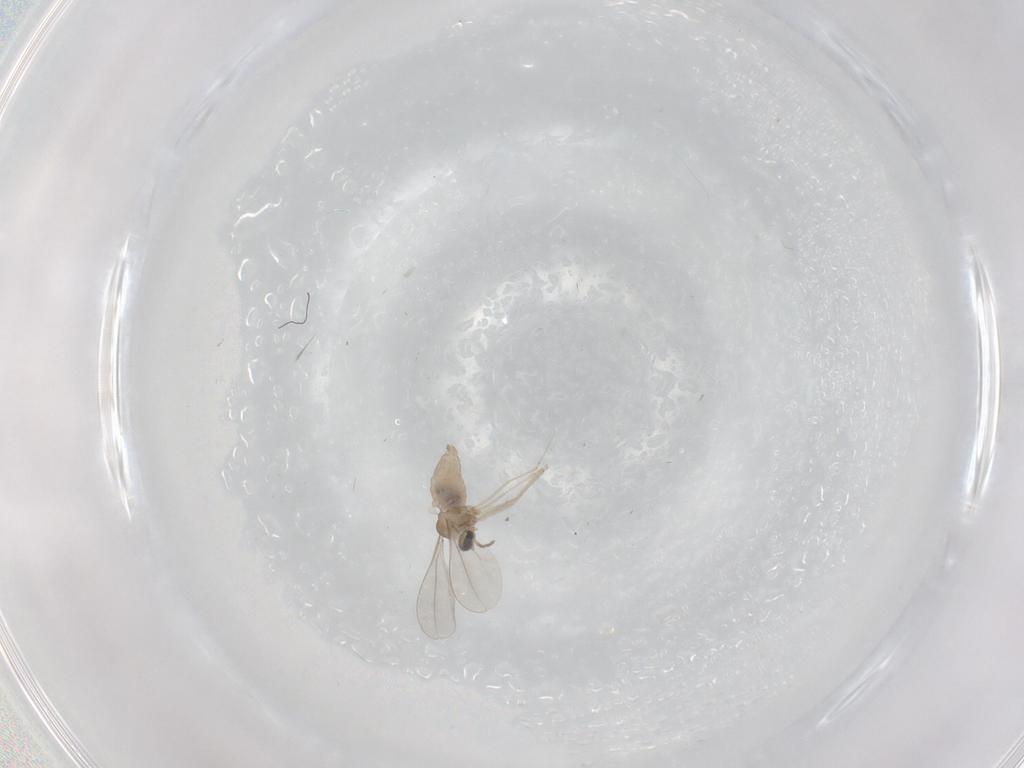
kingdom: Animalia
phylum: Arthropoda
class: Insecta
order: Diptera
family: Cecidomyiidae
